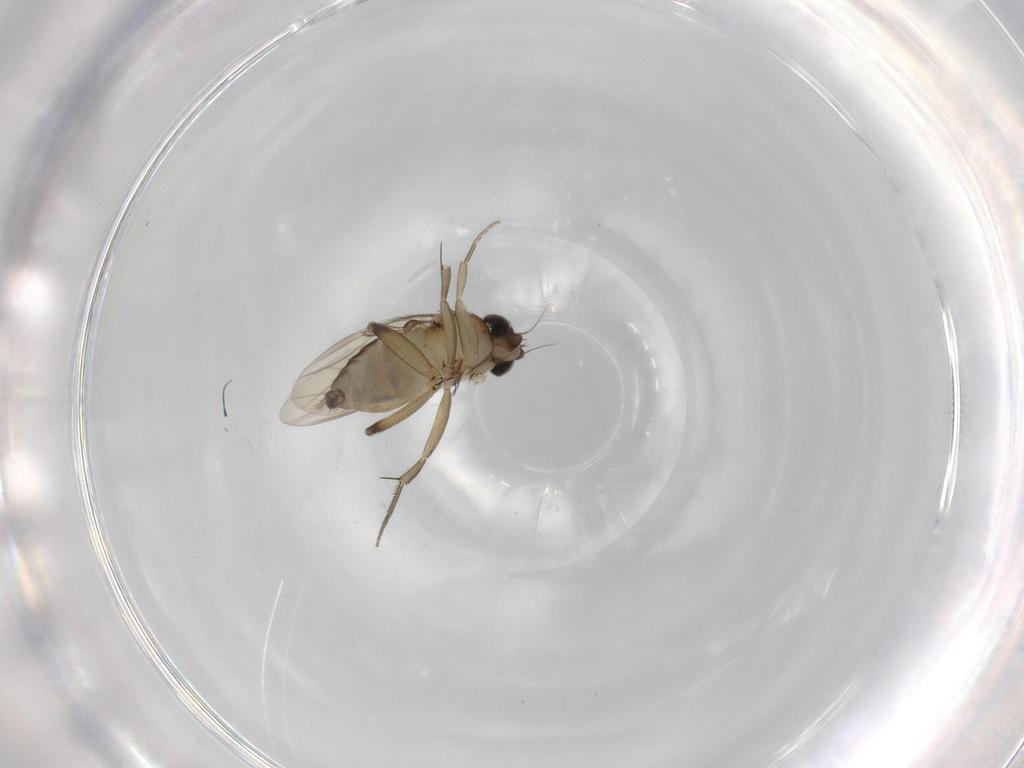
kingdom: Animalia
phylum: Arthropoda
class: Insecta
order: Diptera
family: Phoridae
